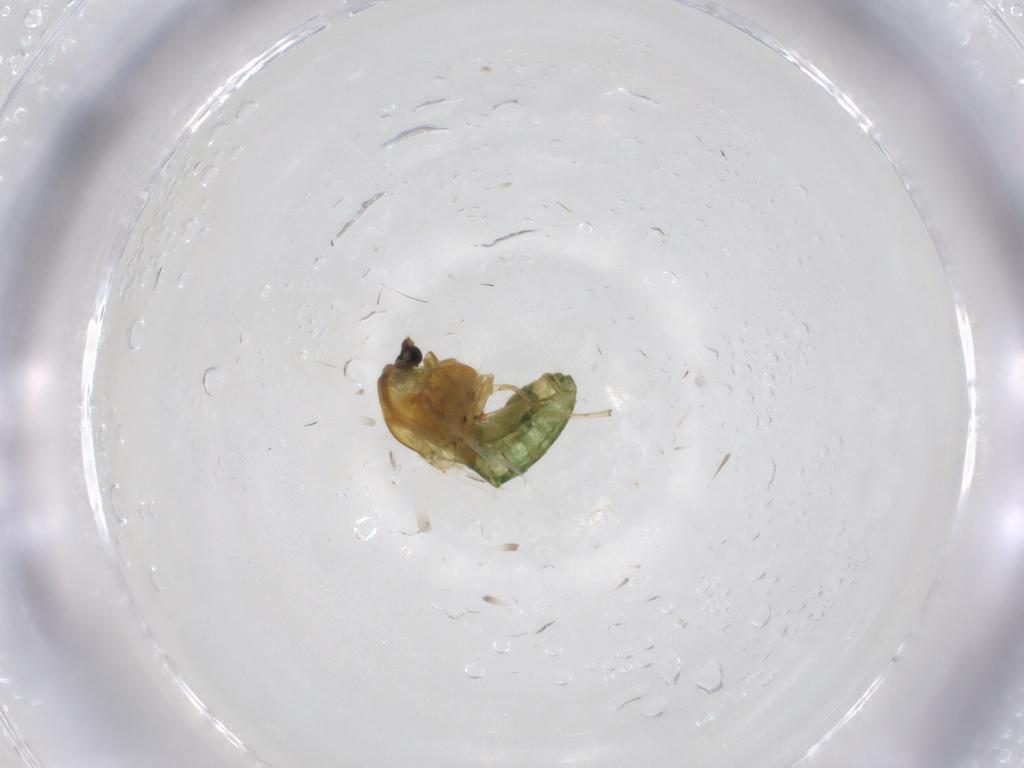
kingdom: Animalia
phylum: Arthropoda
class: Insecta
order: Diptera
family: Chironomidae
